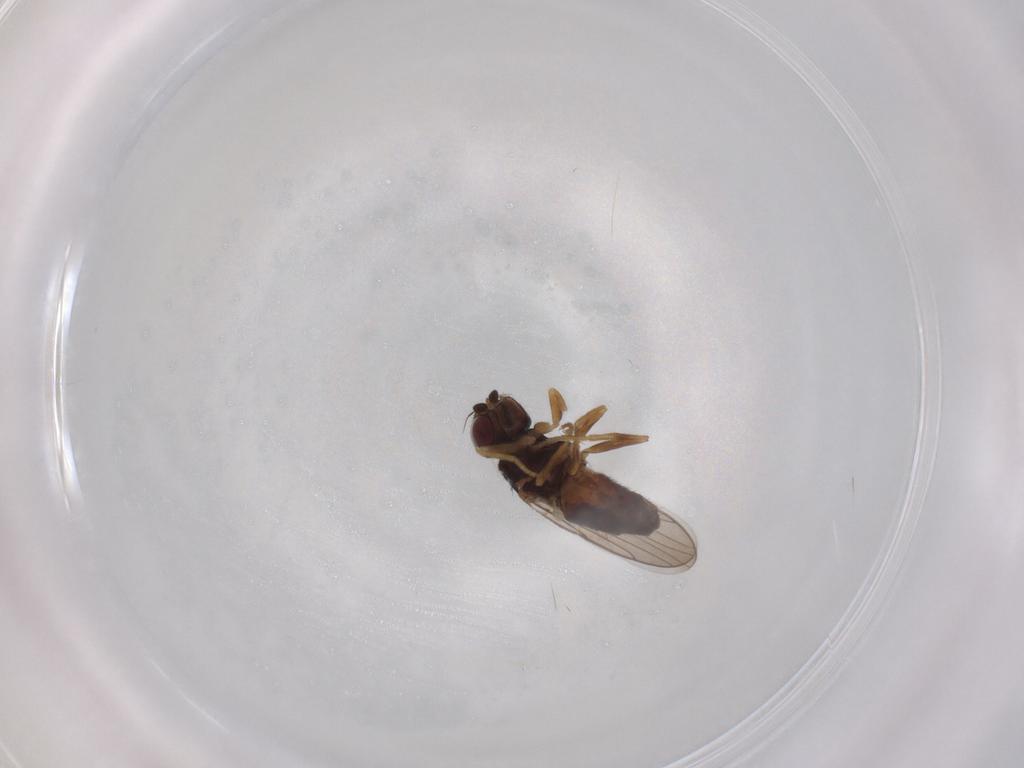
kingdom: Animalia
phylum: Arthropoda
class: Insecta
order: Diptera
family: Chloropidae
